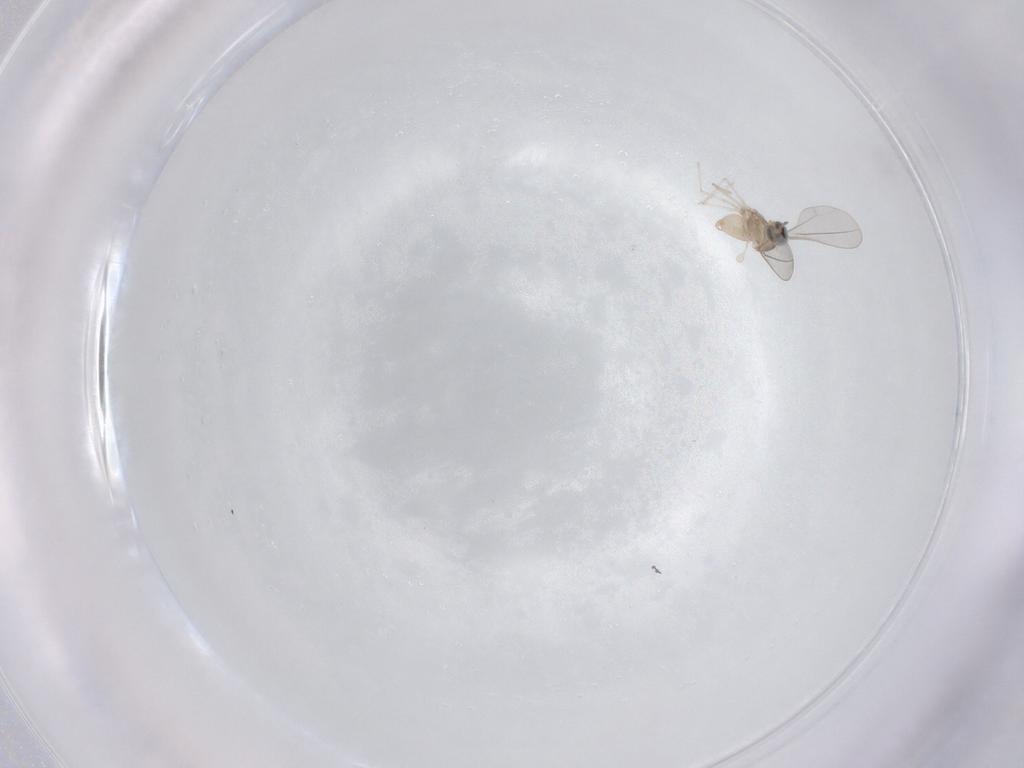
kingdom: Animalia
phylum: Arthropoda
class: Insecta
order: Diptera
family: Cecidomyiidae
